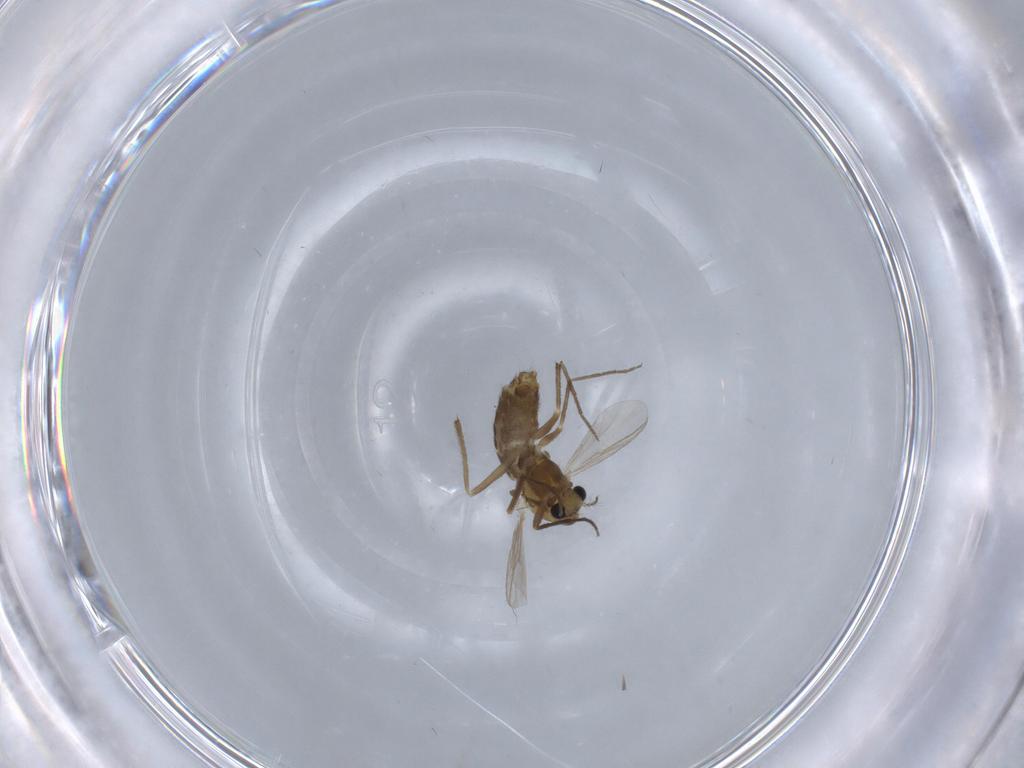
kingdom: Animalia
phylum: Arthropoda
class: Insecta
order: Diptera
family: Chironomidae
